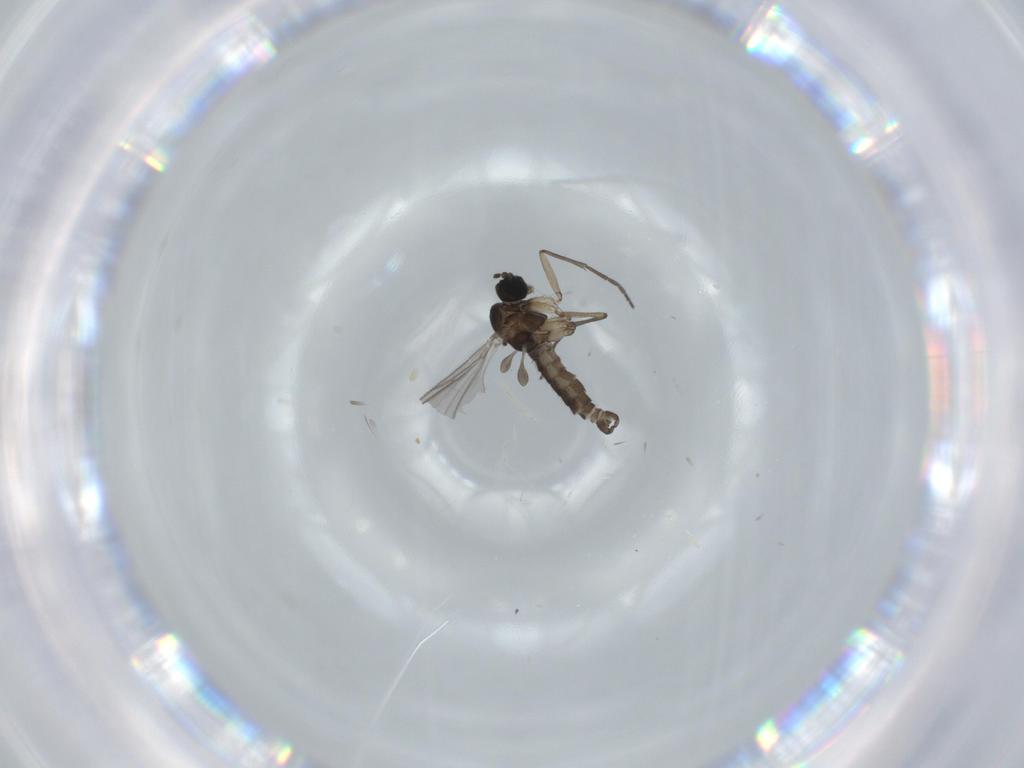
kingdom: Animalia
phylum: Arthropoda
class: Insecta
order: Diptera
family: Sciaridae
